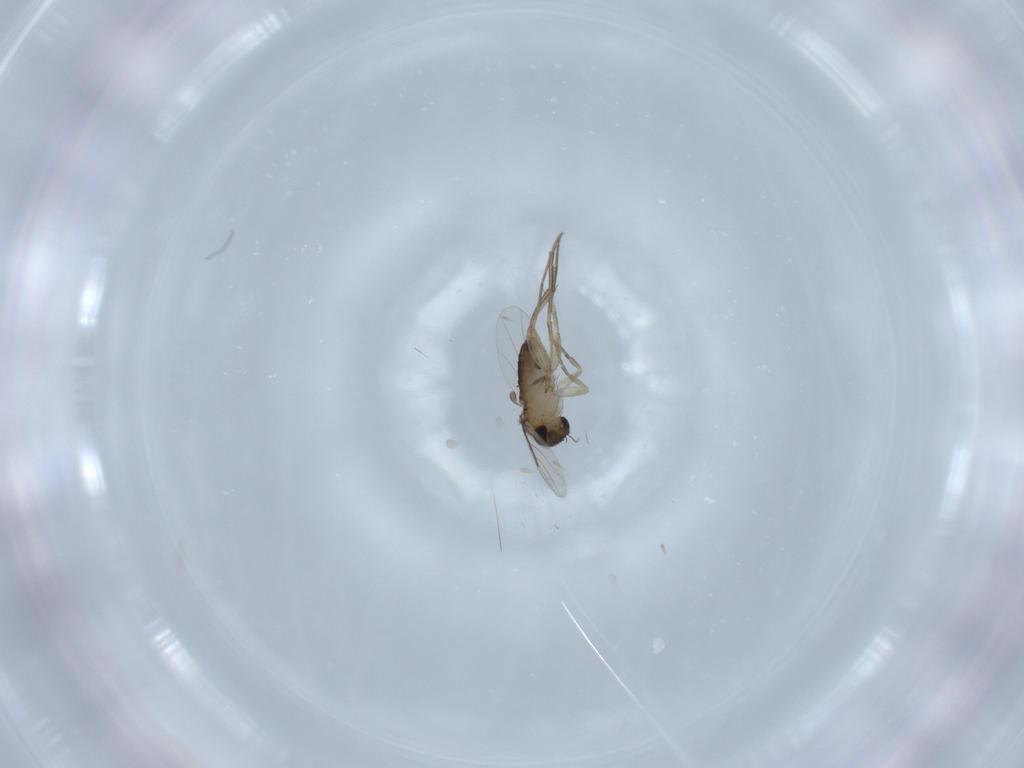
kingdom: Animalia
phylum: Arthropoda
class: Insecta
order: Diptera
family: Phoridae
